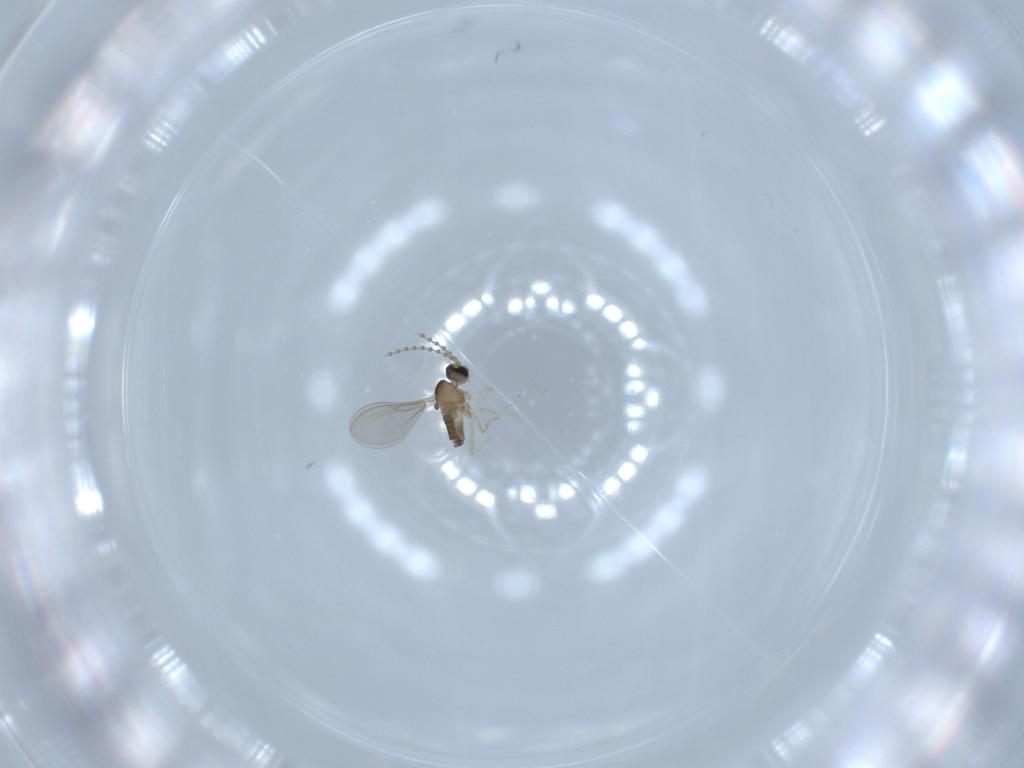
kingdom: Animalia
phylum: Arthropoda
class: Insecta
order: Diptera
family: Cecidomyiidae
